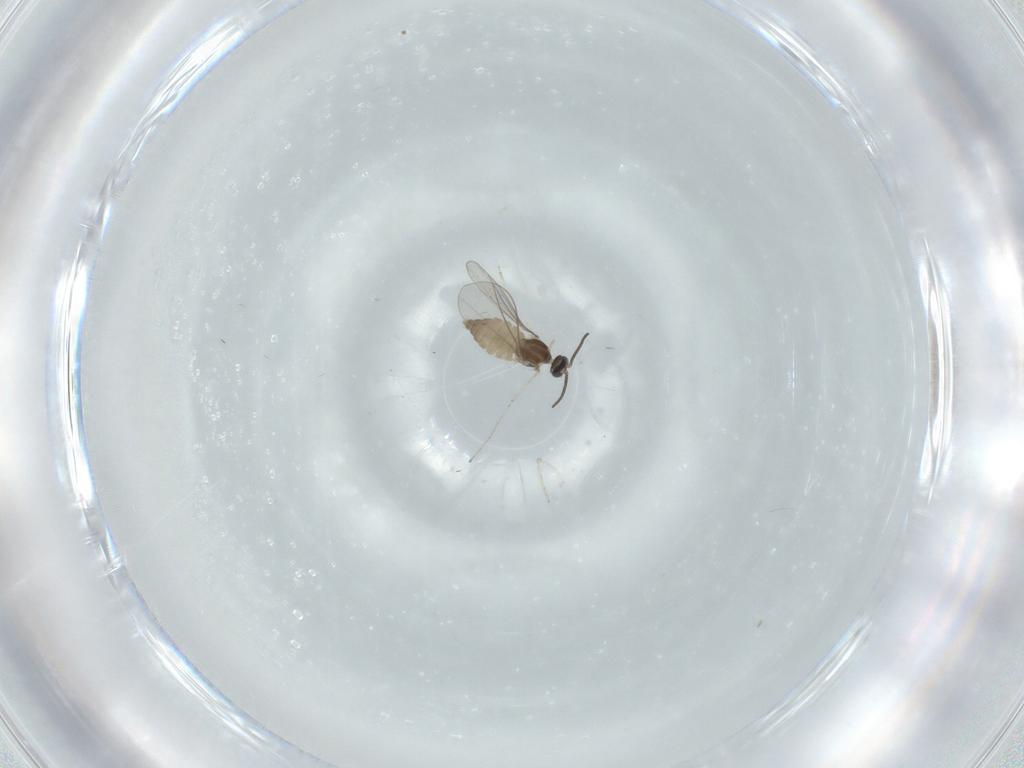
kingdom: Animalia
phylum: Arthropoda
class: Insecta
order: Diptera
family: Cecidomyiidae
